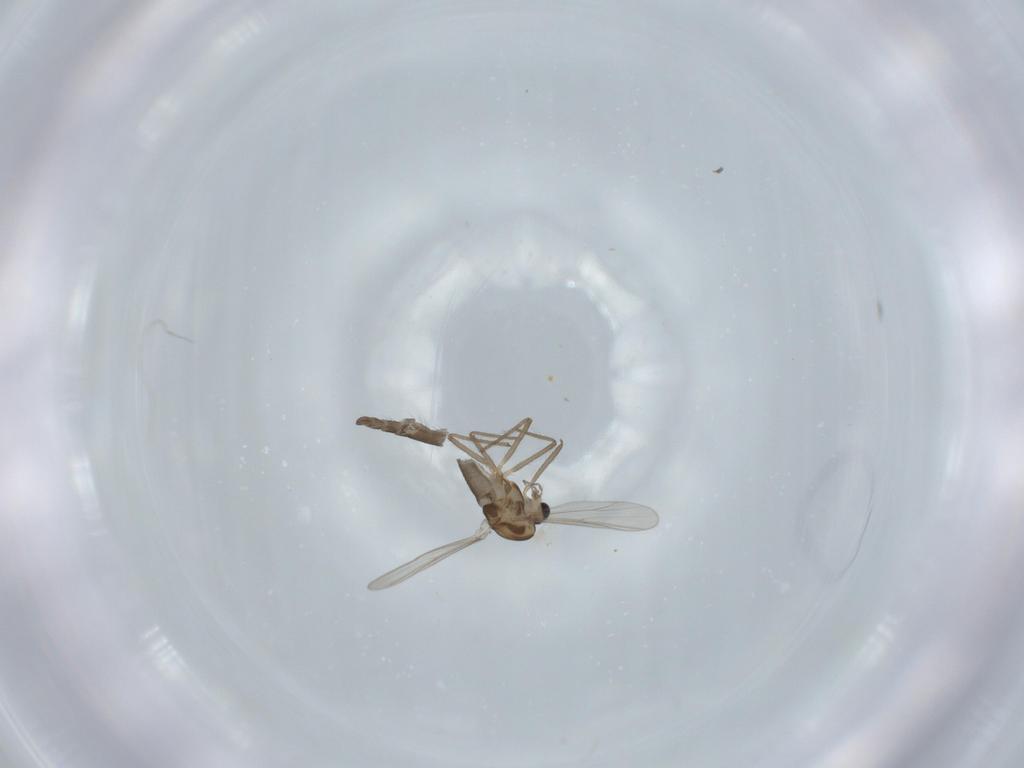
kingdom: Animalia
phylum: Arthropoda
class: Insecta
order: Diptera
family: Chironomidae
